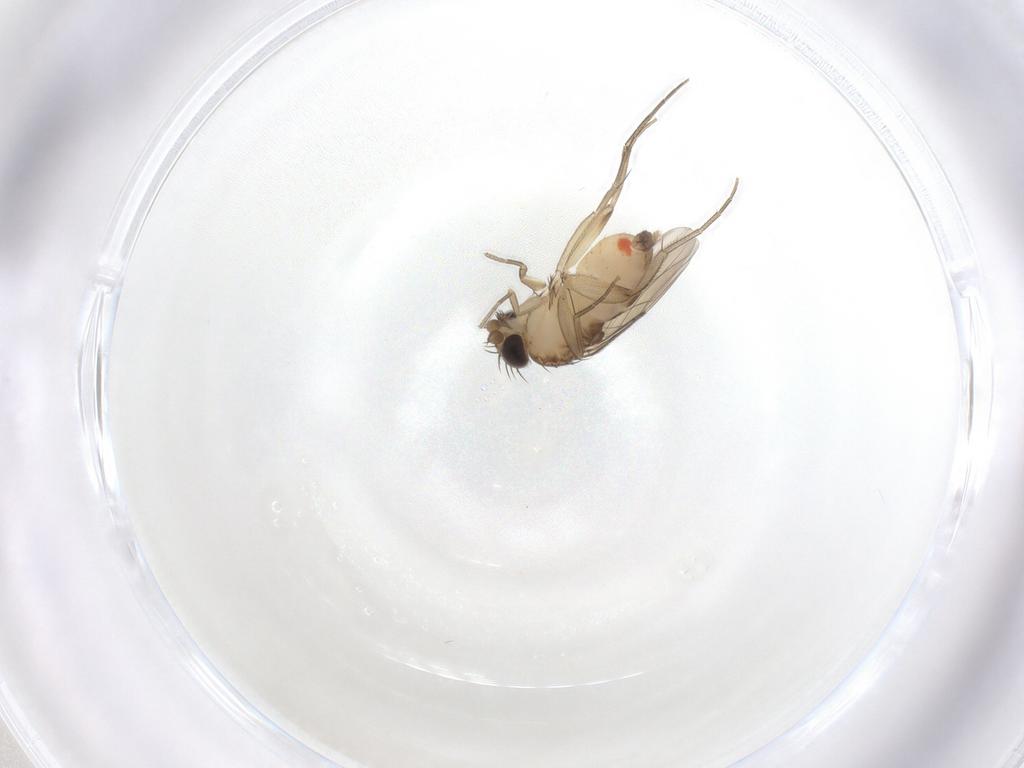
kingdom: Animalia
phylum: Arthropoda
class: Insecta
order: Diptera
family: Phoridae
